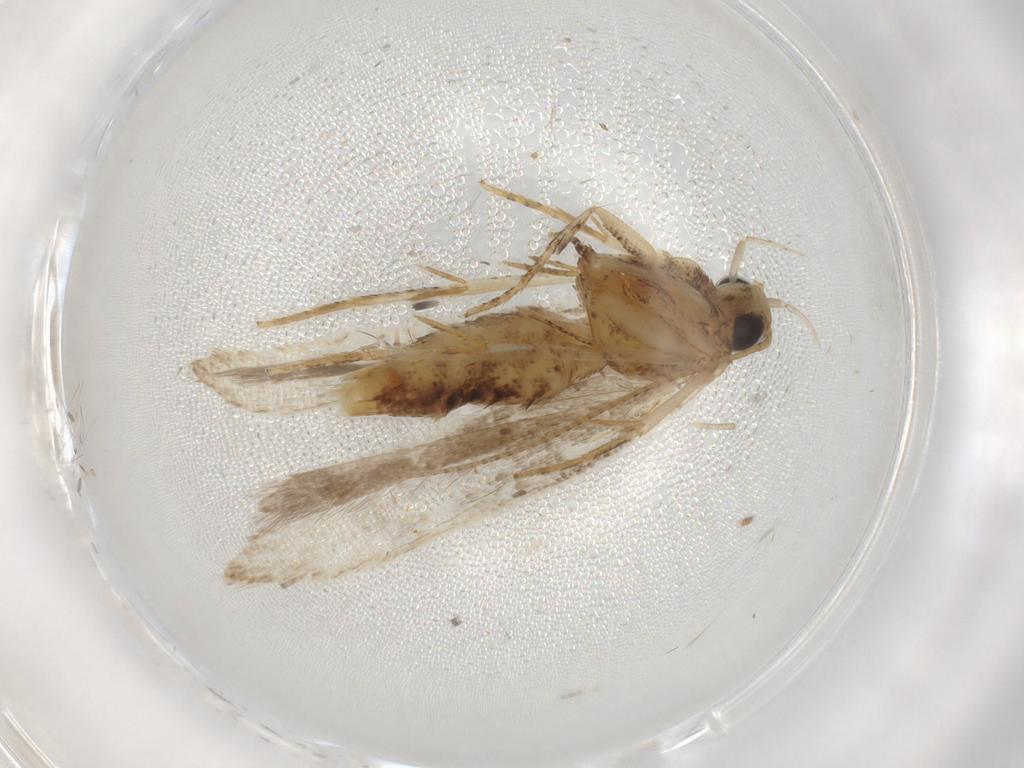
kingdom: Animalia
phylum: Arthropoda
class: Insecta
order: Lepidoptera
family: Notodontidae
